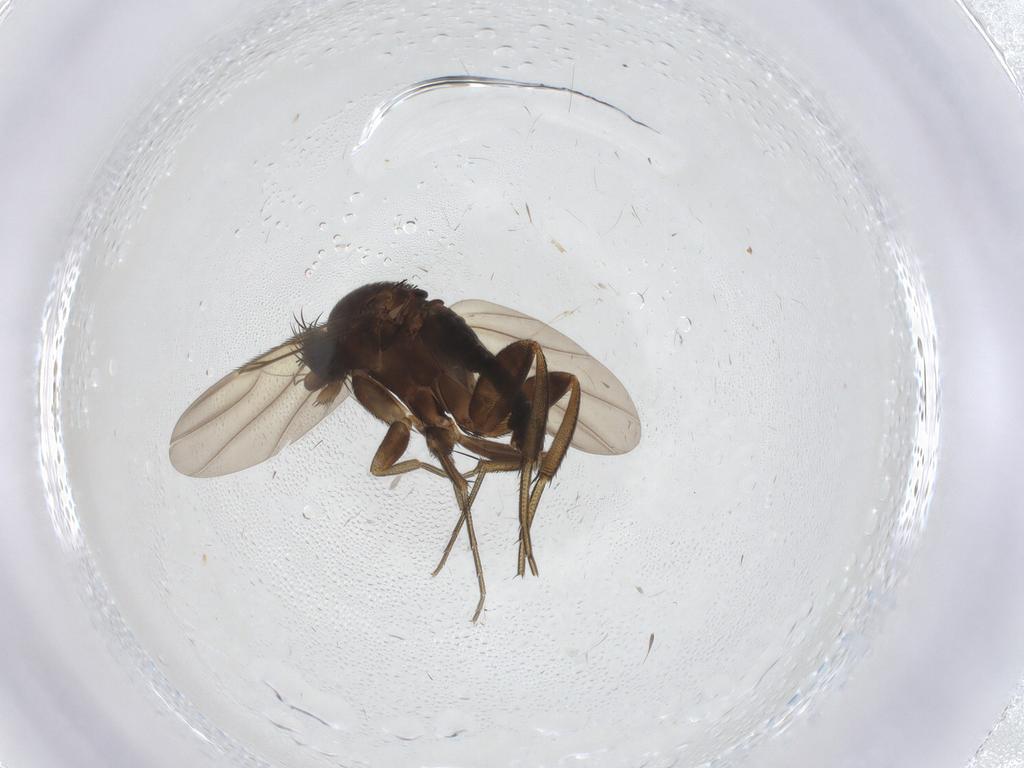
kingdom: Animalia
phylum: Arthropoda
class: Insecta
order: Diptera
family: Phoridae
